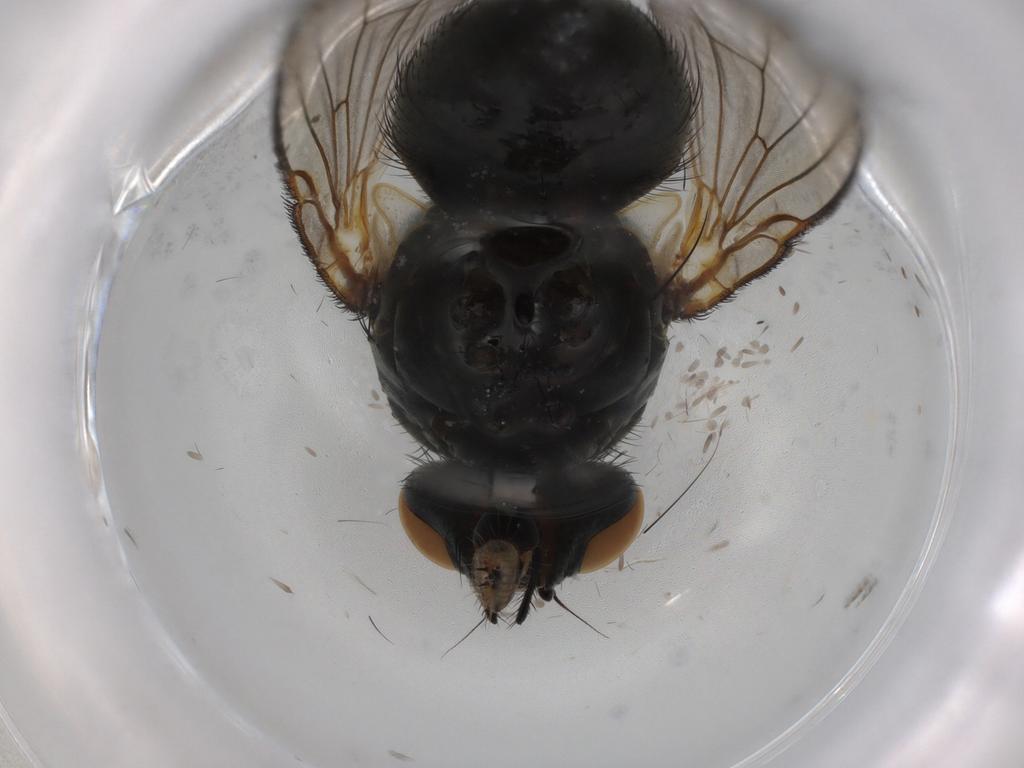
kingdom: Animalia
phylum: Arthropoda
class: Insecta
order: Diptera
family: Muscidae
